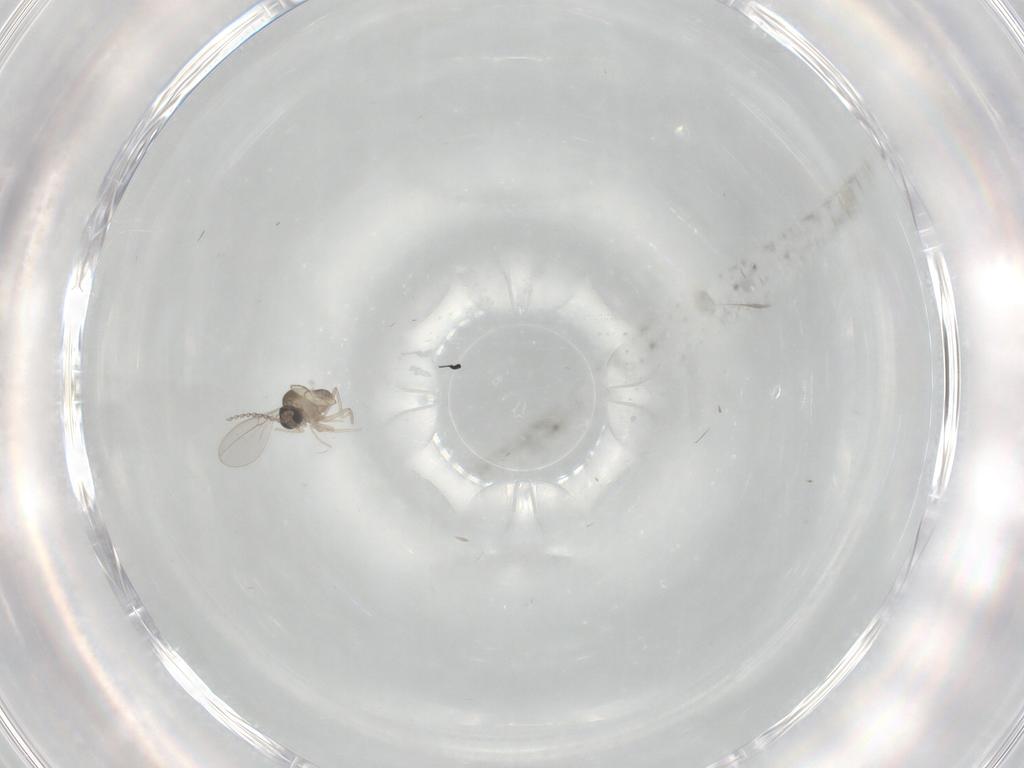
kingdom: Animalia
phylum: Arthropoda
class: Insecta
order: Diptera
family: Cecidomyiidae
